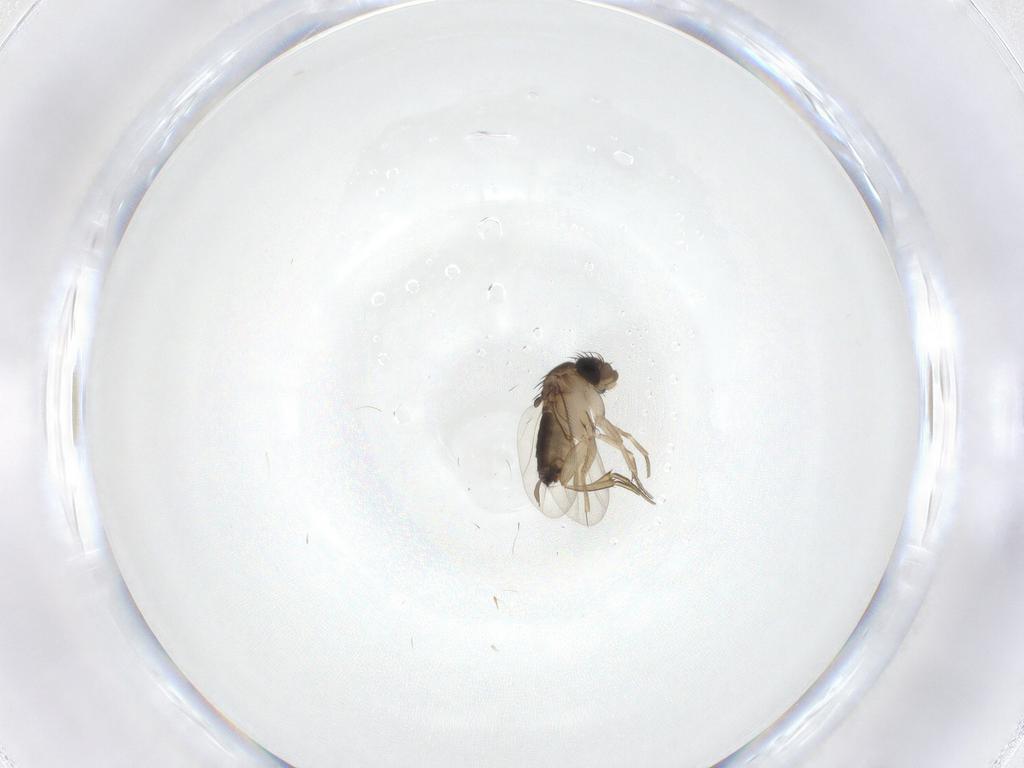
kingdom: Animalia
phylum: Arthropoda
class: Insecta
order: Diptera
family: Phoridae
